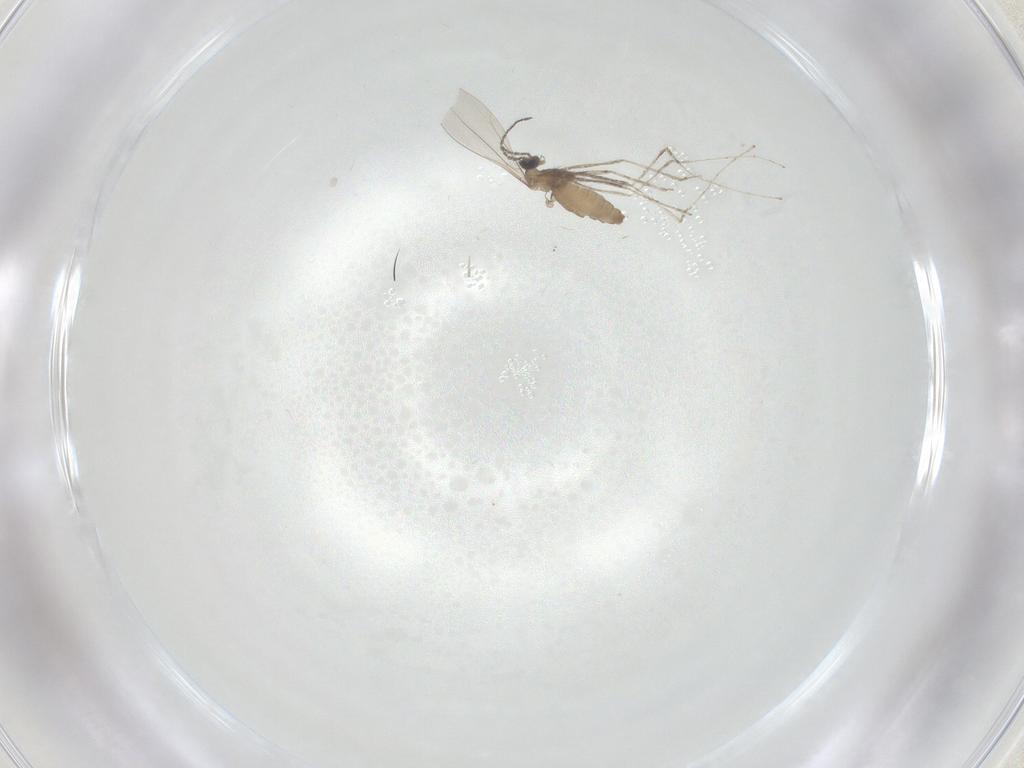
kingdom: Animalia
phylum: Arthropoda
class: Insecta
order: Diptera
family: Cecidomyiidae
